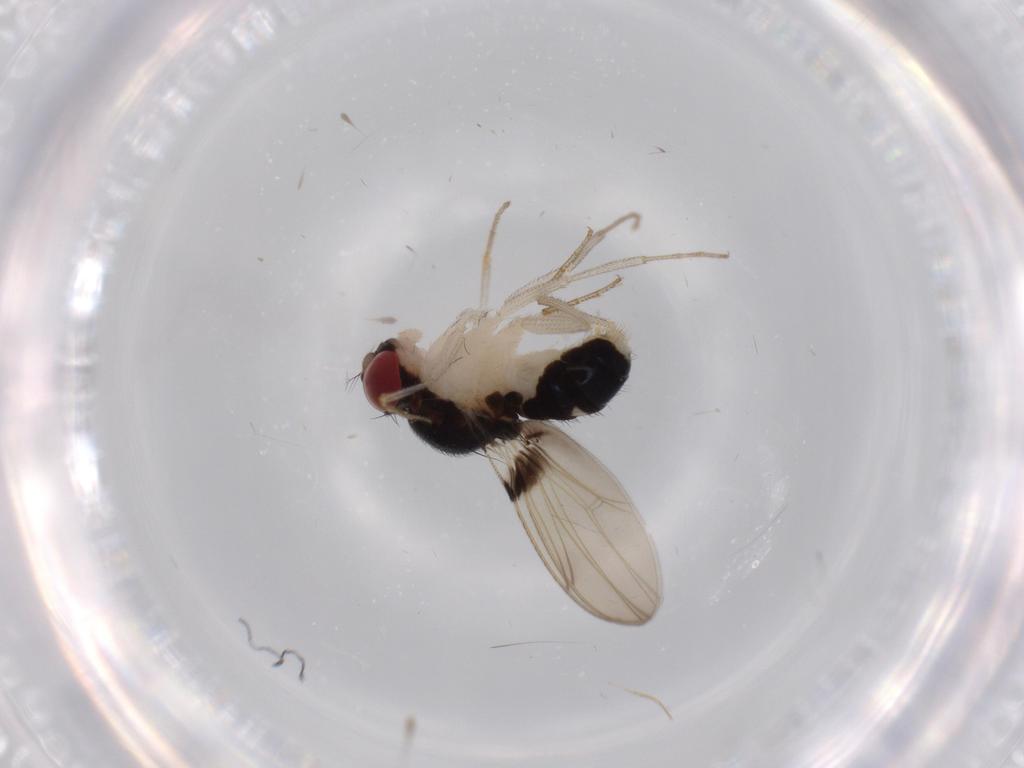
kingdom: Animalia
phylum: Arthropoda
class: Insecta
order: Diptera
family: Drosophilidae
